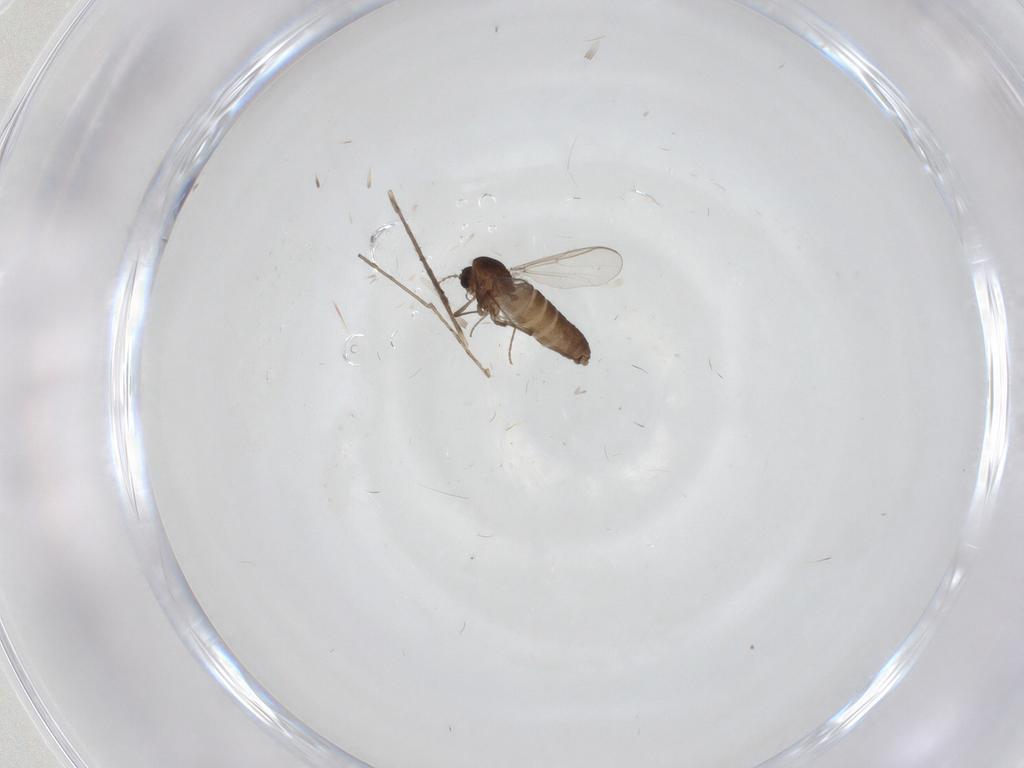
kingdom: Animalia
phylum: Arthropoda
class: Insecta
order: Diptera
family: Chironomidae
